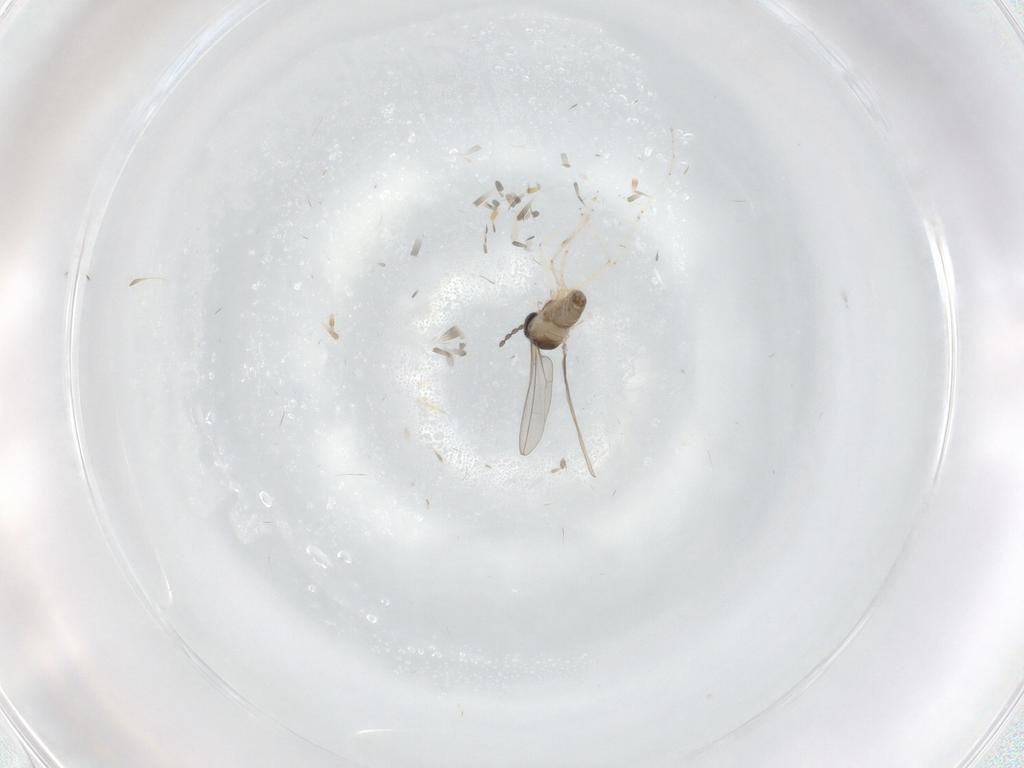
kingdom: Animalia
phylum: Arthropoda
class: Insecta
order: Diptera
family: Cecidomyiidae
